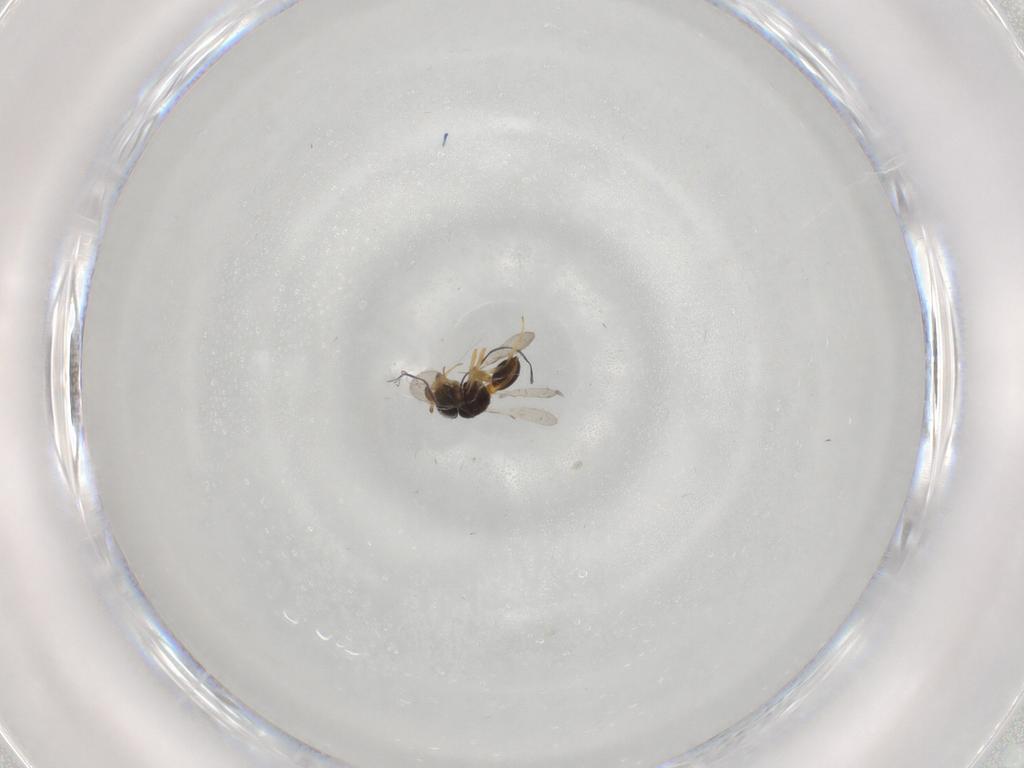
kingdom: Animalia
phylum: Arthropoda
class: Insecta
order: Hymenoptera
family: Scelionidae
